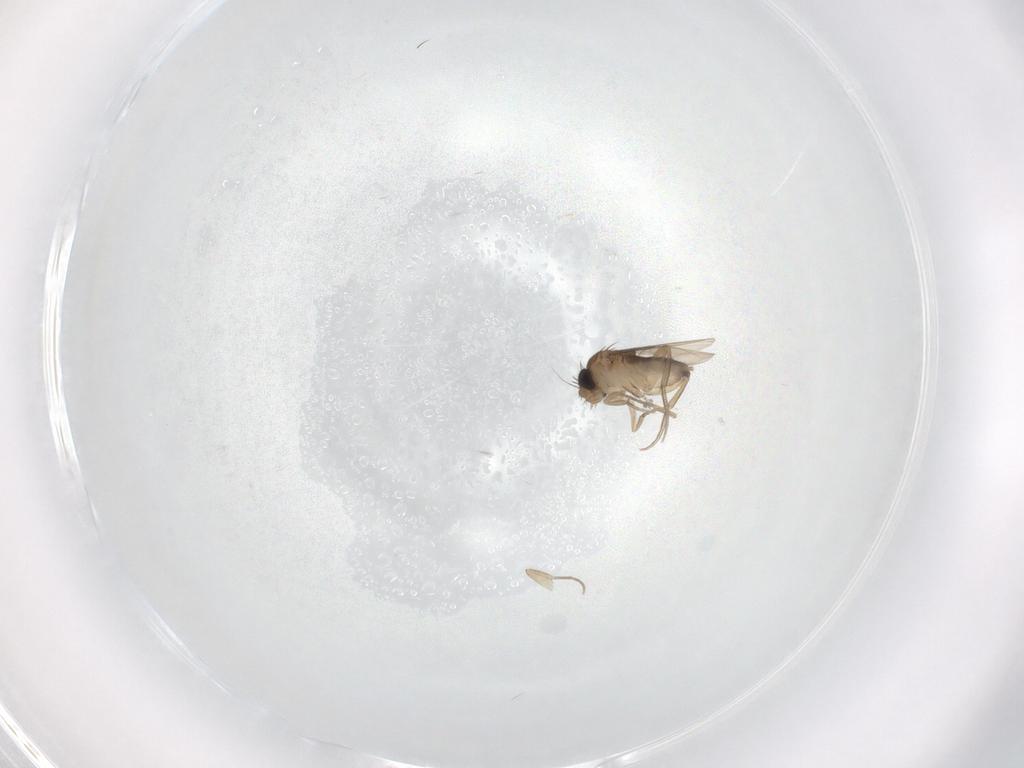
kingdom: Animalia
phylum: Arthropoda
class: Insecta
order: Diptera
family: Phoridae
